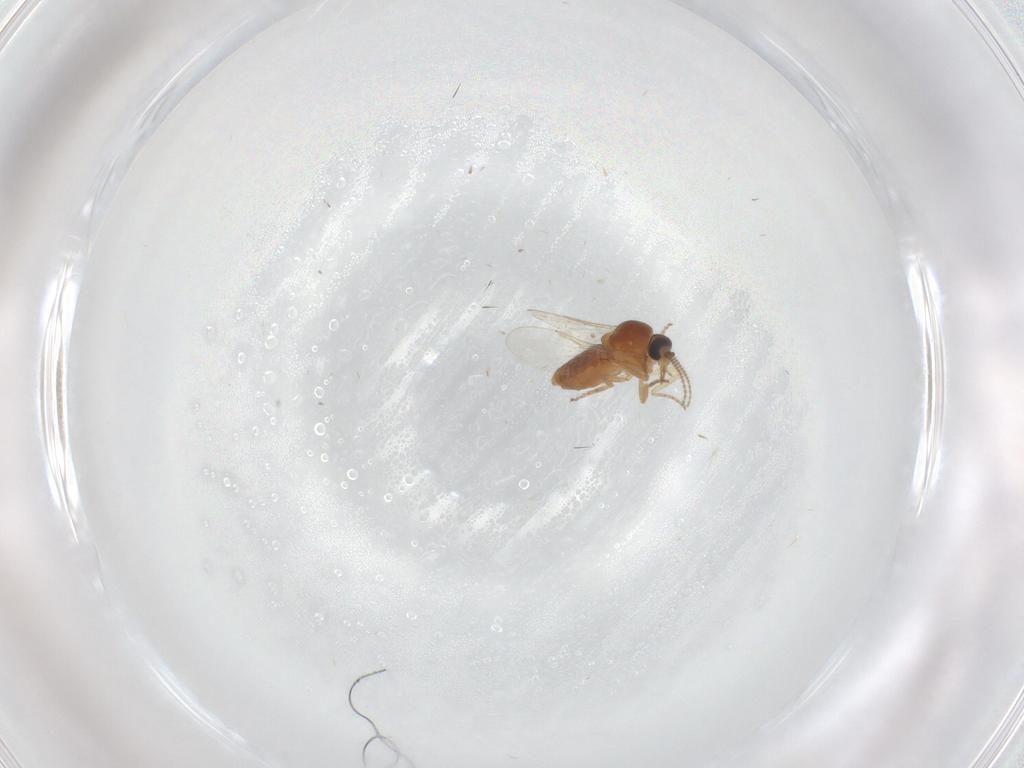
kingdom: Animalia
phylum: Arthropoda
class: Insecta
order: Diptera
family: Ceratopogonidae
